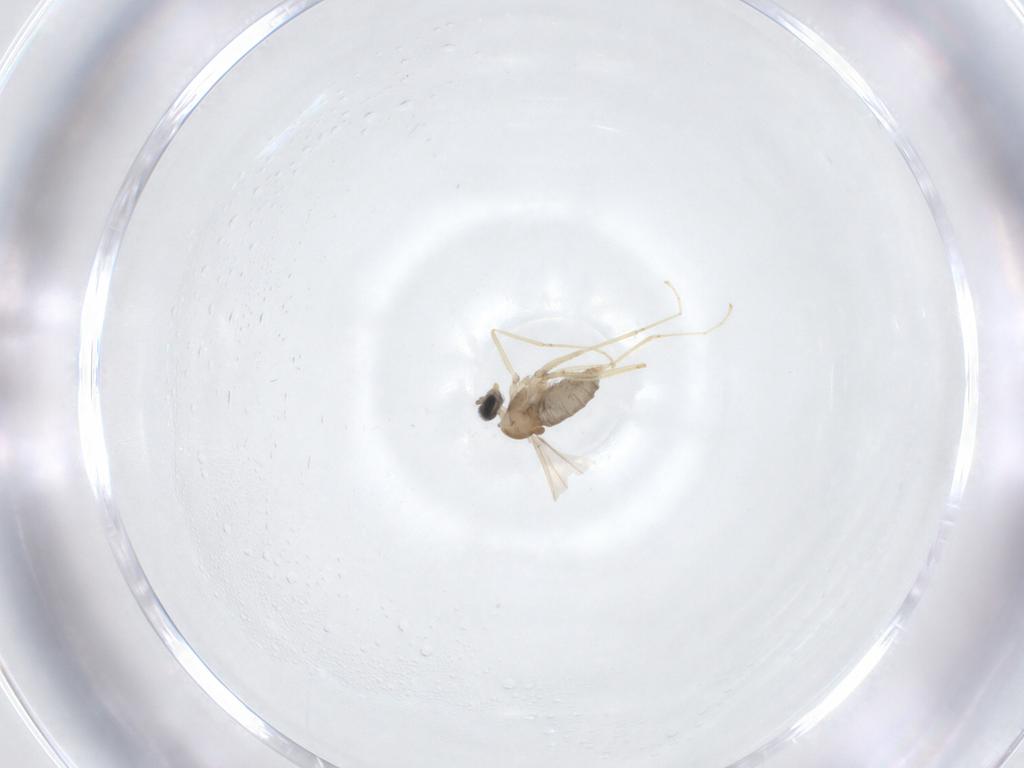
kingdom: Animalia
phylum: Arthropoda
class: Insecta
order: Diptera
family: Cecidomyiidae
